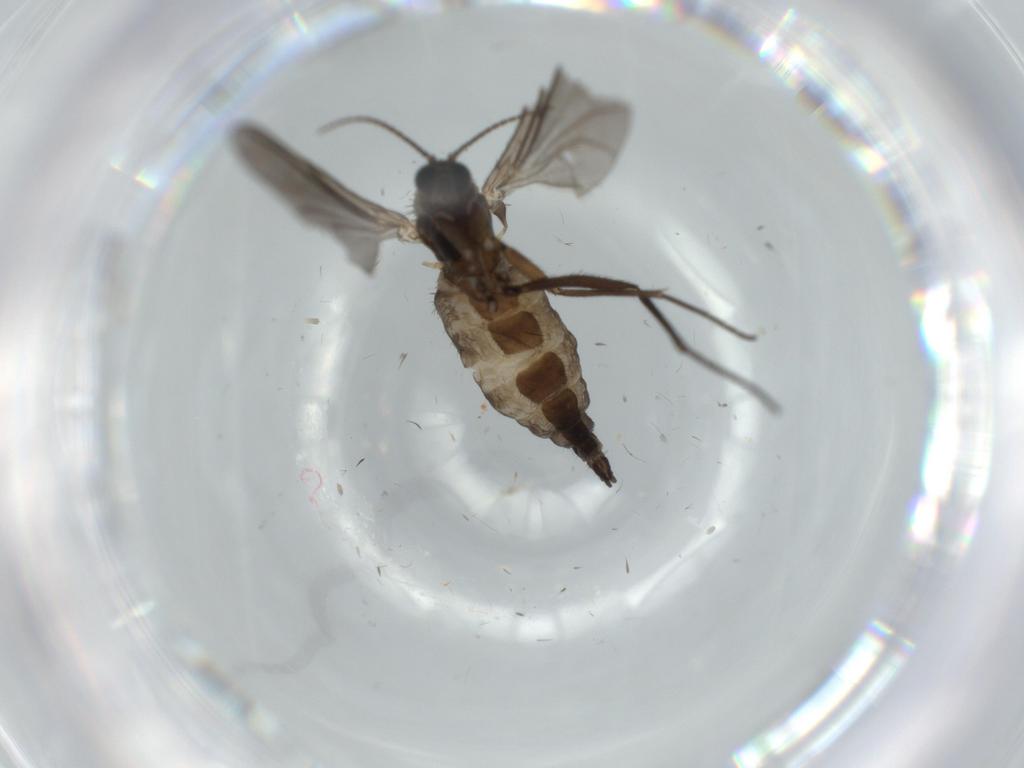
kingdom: Animalia
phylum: Arthropoda
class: Insecta
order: Diptera
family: Sciaridae
